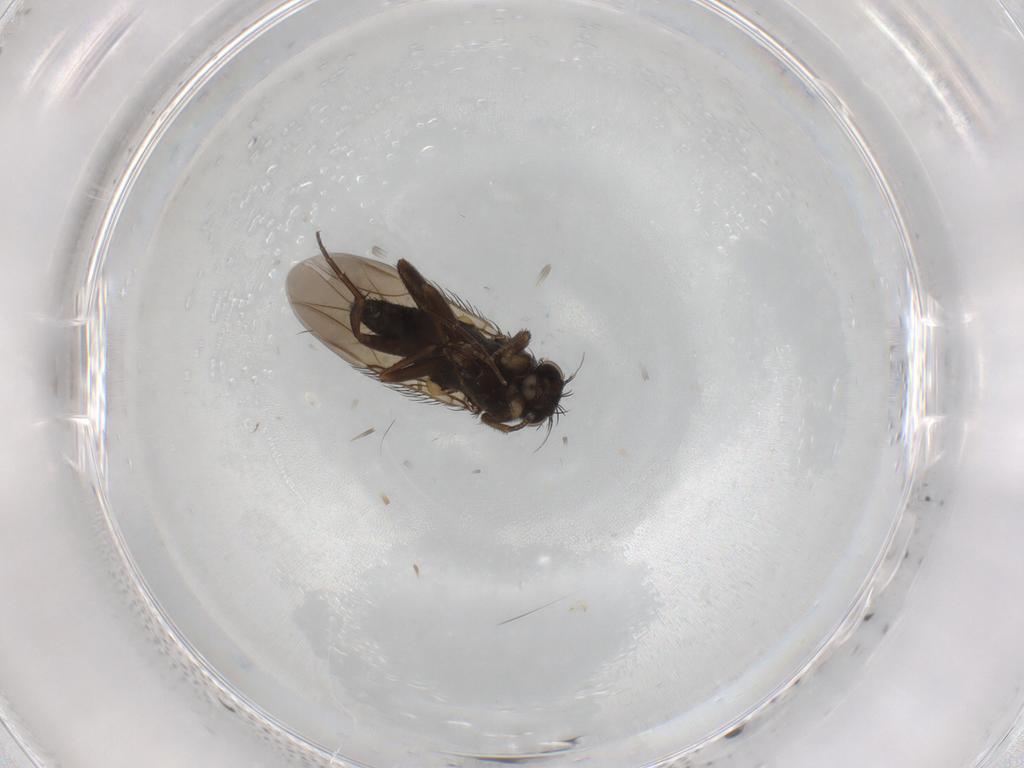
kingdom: Animalia
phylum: Arthropoda
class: Insecta
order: Diptera
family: Phoridae
